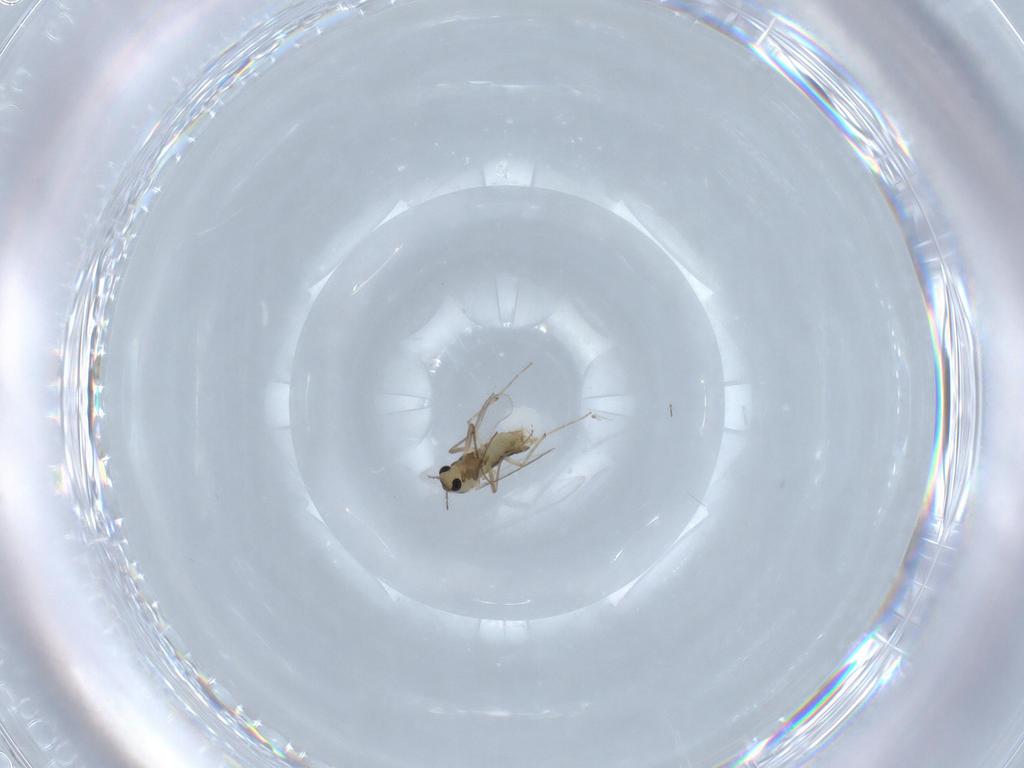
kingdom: Animalia
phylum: Arthropoda
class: Insecta
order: Diptera
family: Chironomidae
